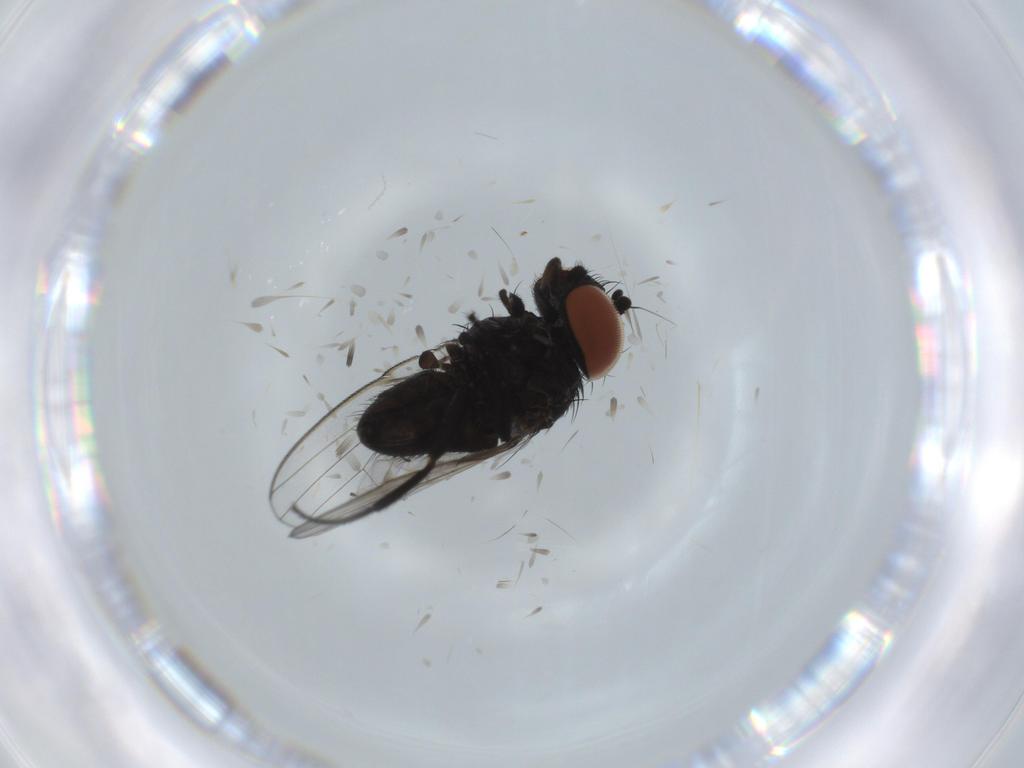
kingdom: Animalia
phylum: Arthropoda
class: Insecta
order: Diptera
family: Milichiidae
